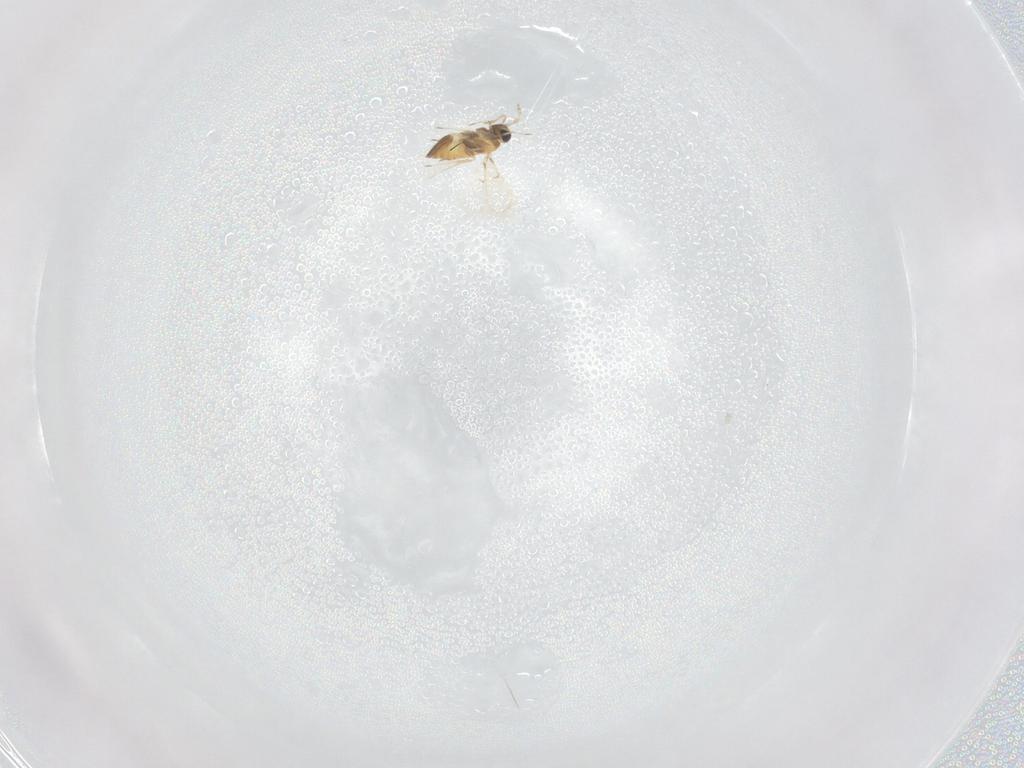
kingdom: Animalia
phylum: Arthropoda
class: Insecta
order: Hymenoptera
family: Trichogrammatidae
